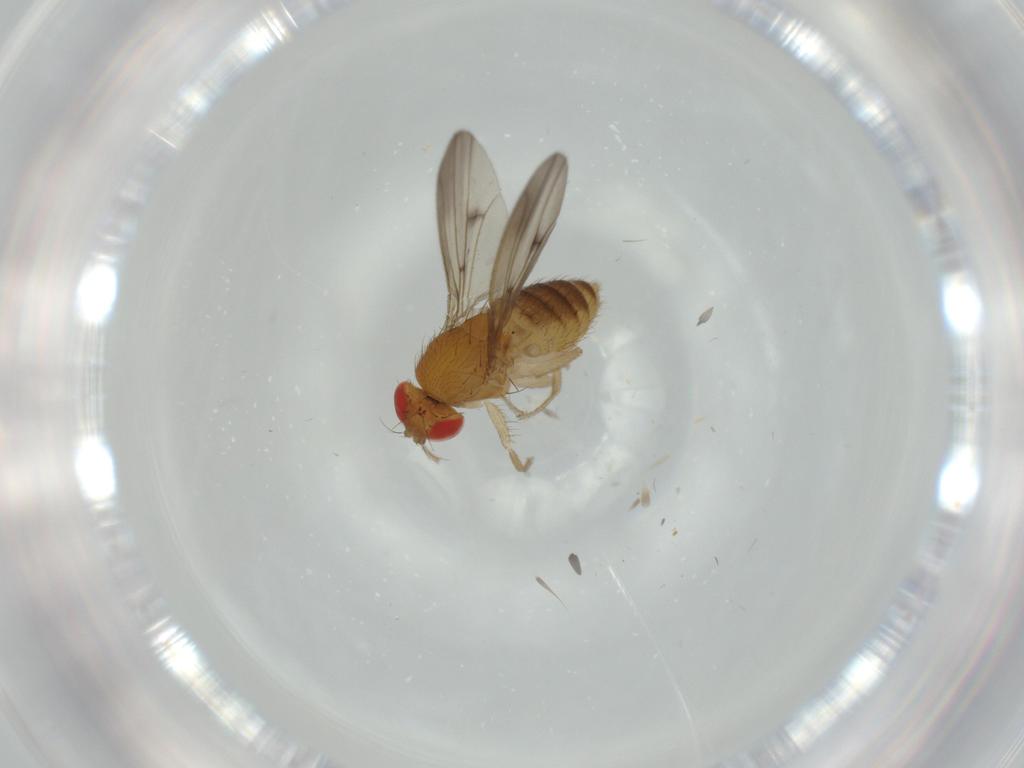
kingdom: Animalia
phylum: Arthropoda
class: Insecta
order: Diptera
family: Drosophilidae
